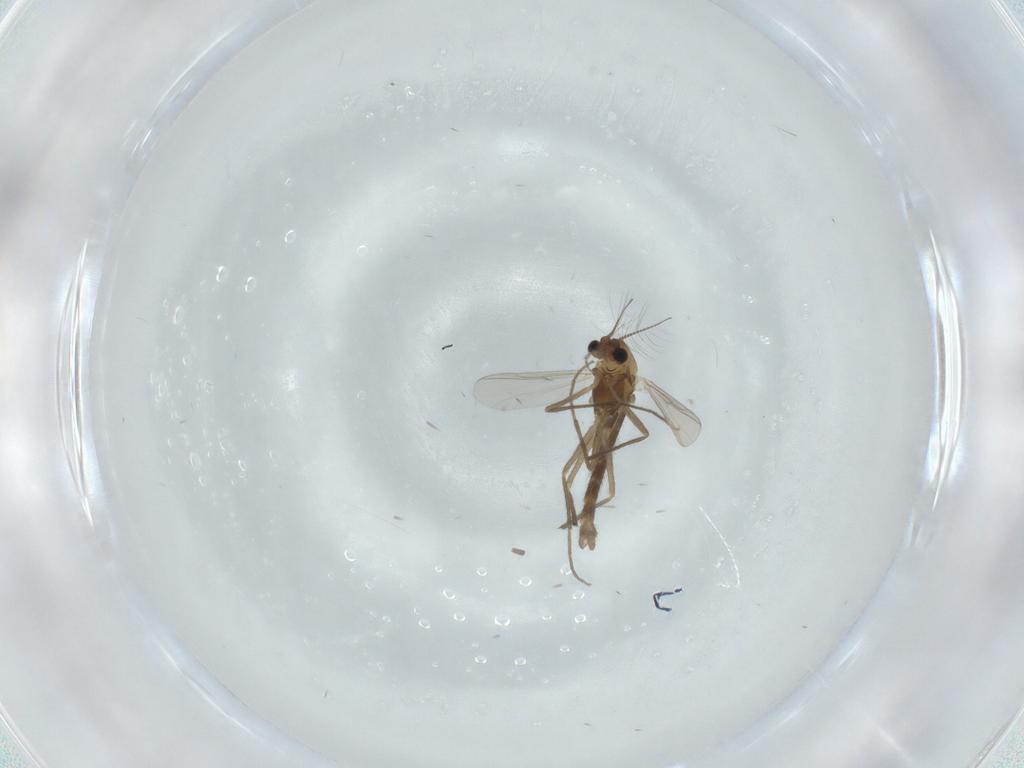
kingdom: Animalia
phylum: Arthropoda
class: Insecta
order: Diptera
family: Chironomidae
